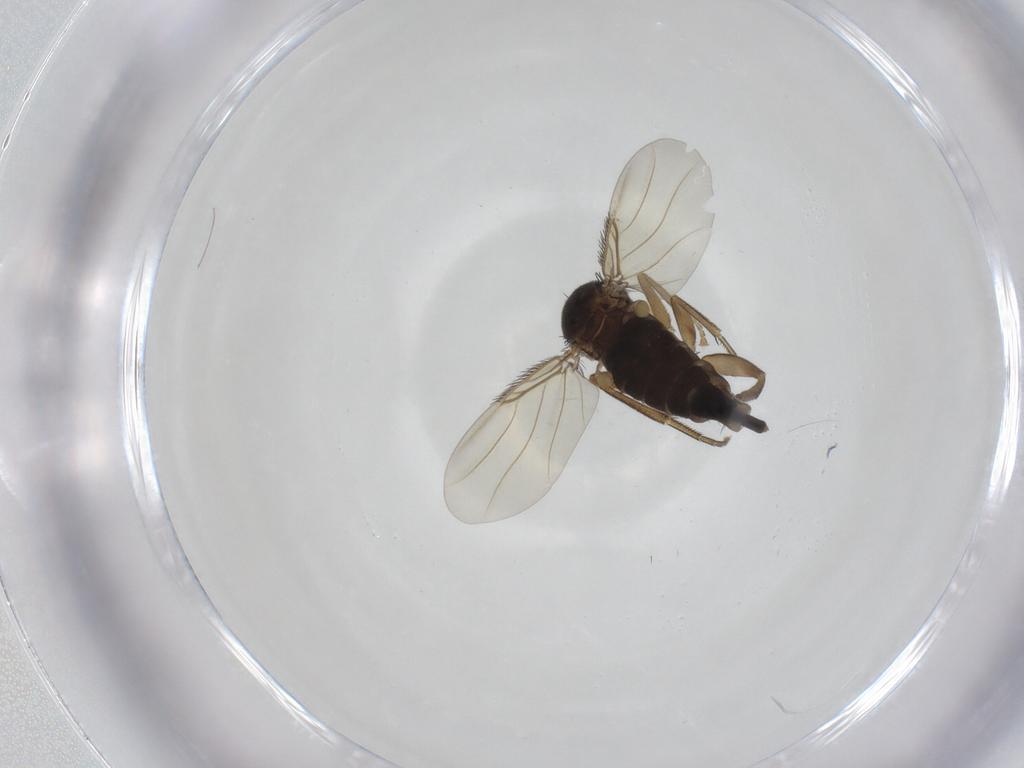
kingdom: Animalia
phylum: Arthropoda
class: Insecta
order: Diptera
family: Phoridae
